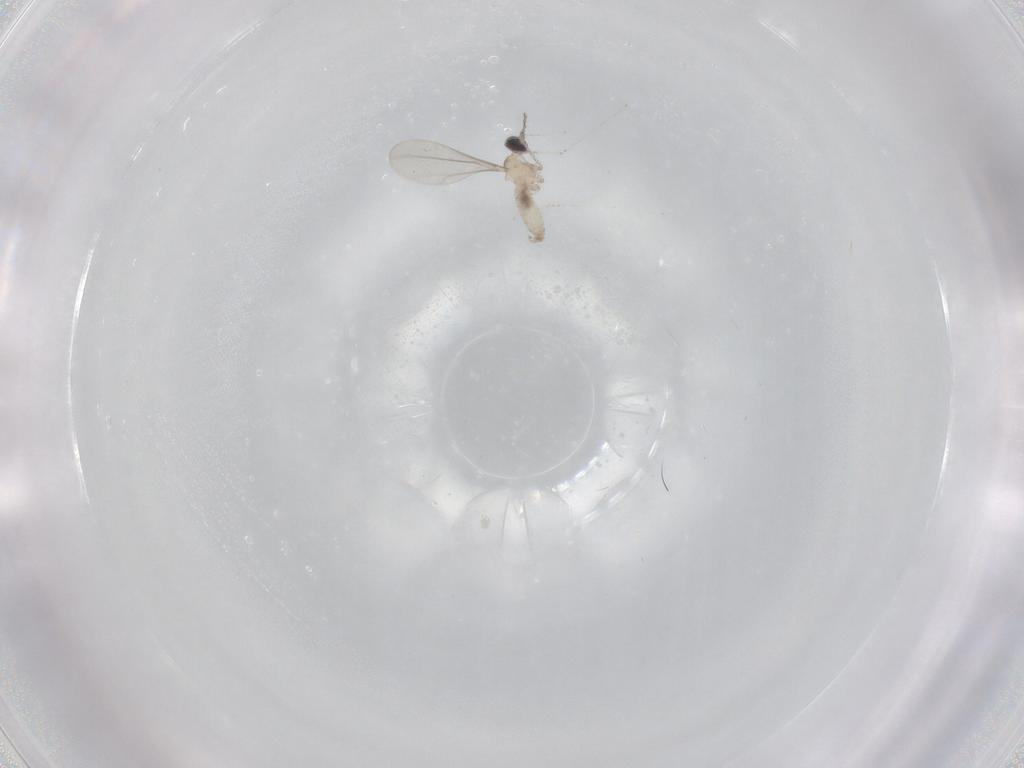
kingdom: Animalia
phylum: Arthropoda
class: Insecta
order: Diptera
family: Cecidomyiidae
